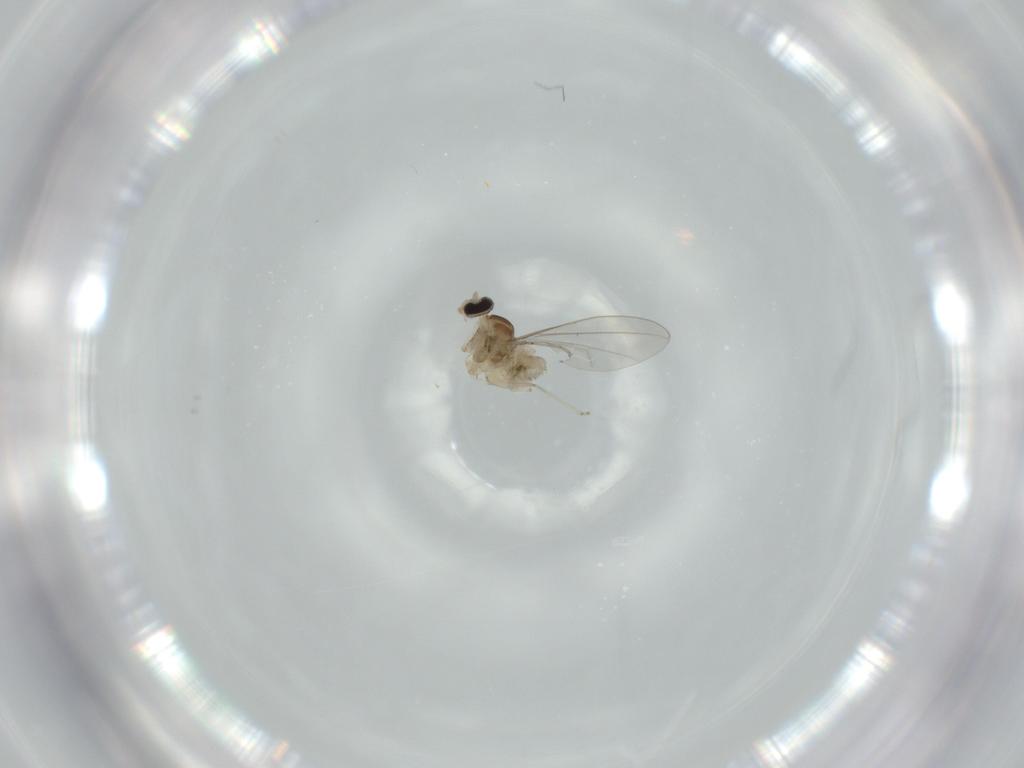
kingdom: Animalia
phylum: Arthropoda
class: Insecta
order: Diptera
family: Cecidomyiidae
